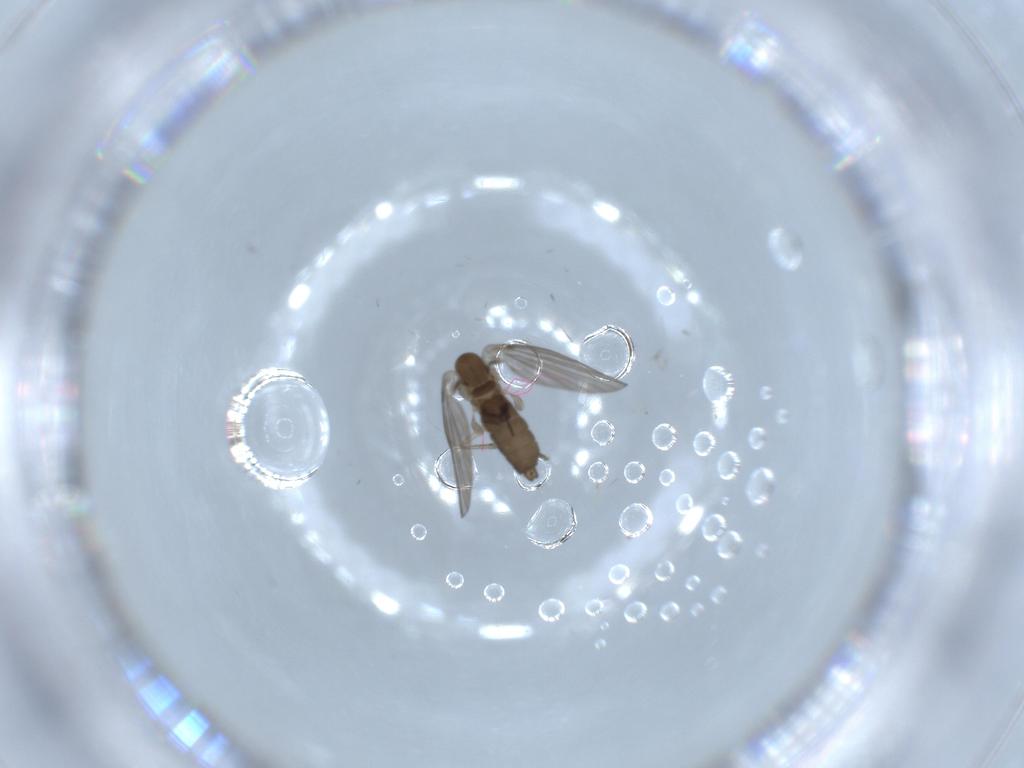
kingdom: Animalia
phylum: Arthropoda
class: Insecta
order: Diptera
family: Psychodidae
